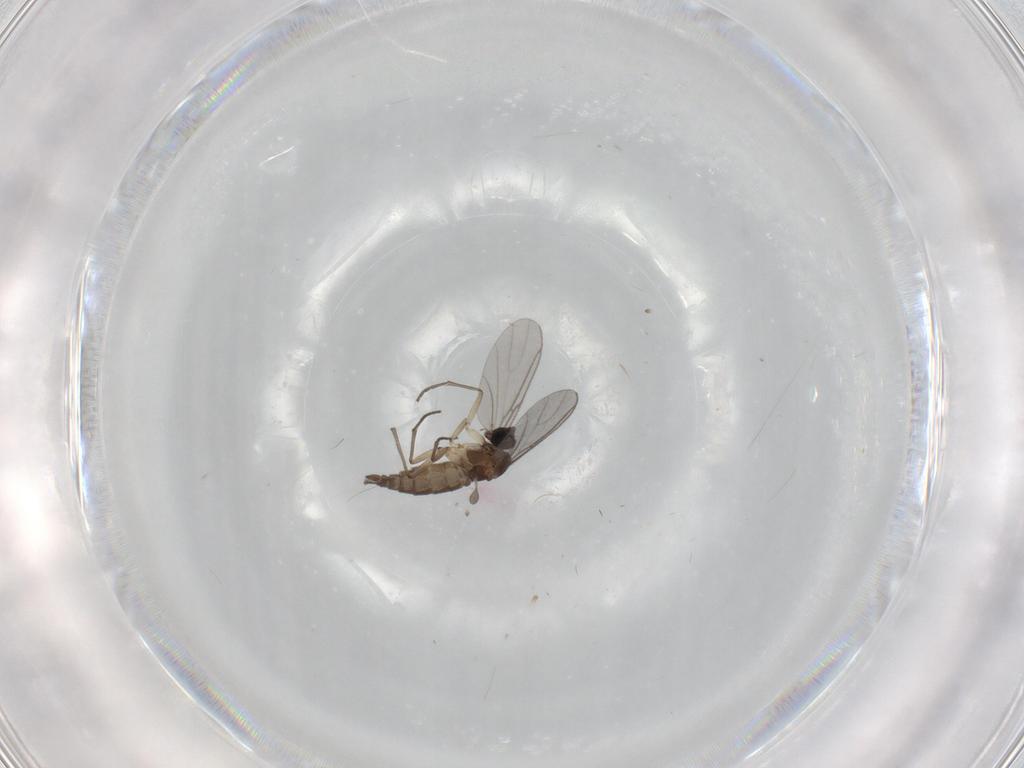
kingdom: Animalia
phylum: Arthropoda
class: Insecta
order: Diptera
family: Sciaridae
